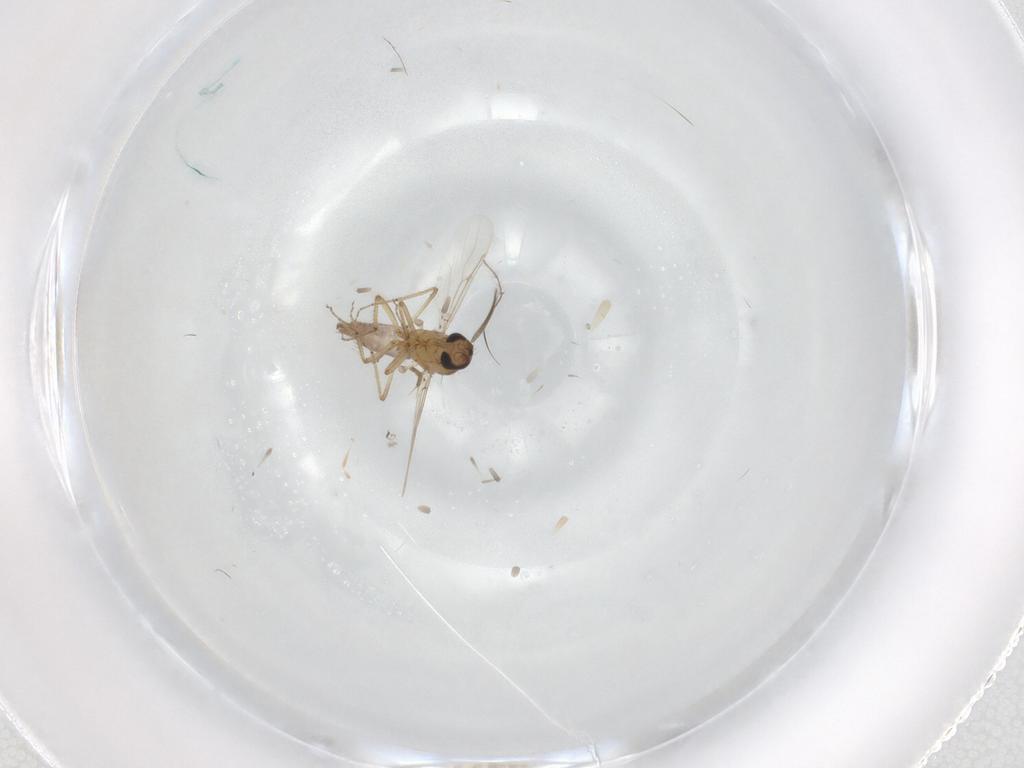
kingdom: Animalia
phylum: Arthropoda
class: Insecta
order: Diptera
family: Ceratopogonidae
